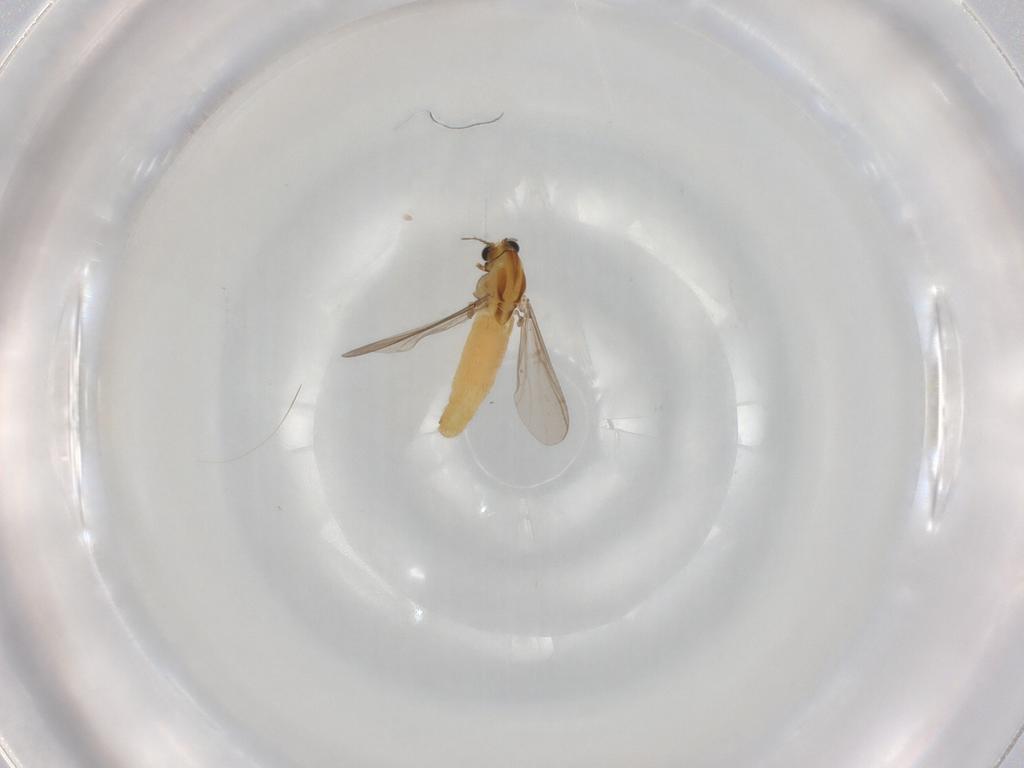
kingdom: Animalia
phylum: Arthropoda
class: Insecta
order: Diptera
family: Chironomidae
